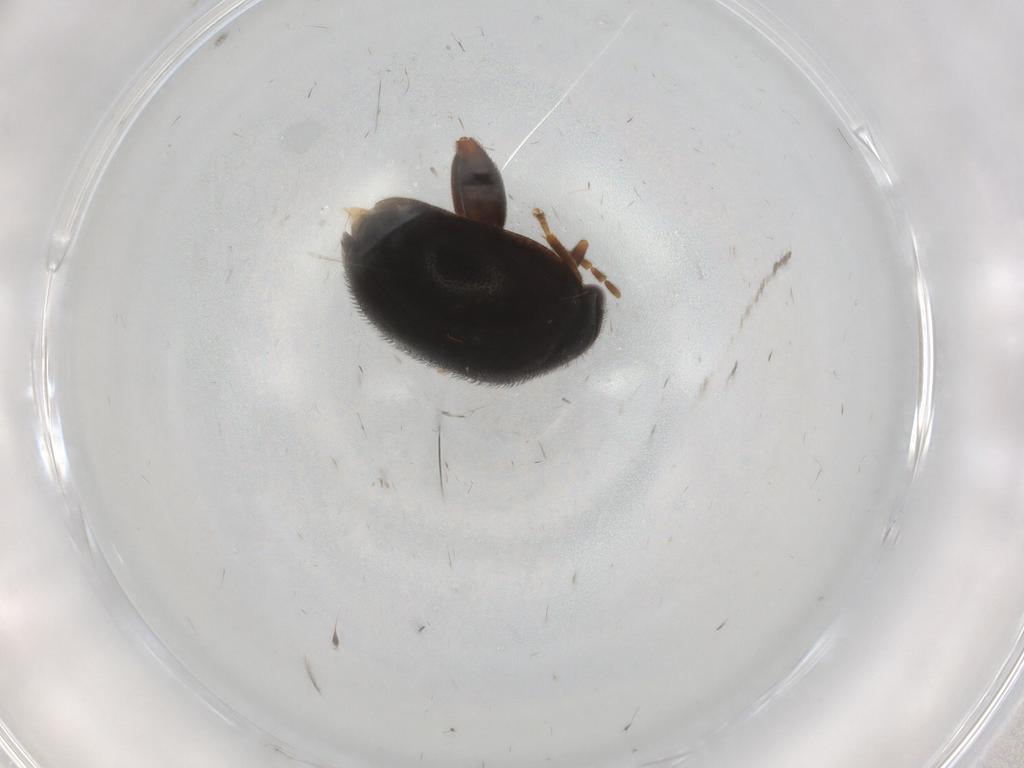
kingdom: Animalia
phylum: Arthropoda
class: Insecta
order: Coleoptera
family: Scirtidae
